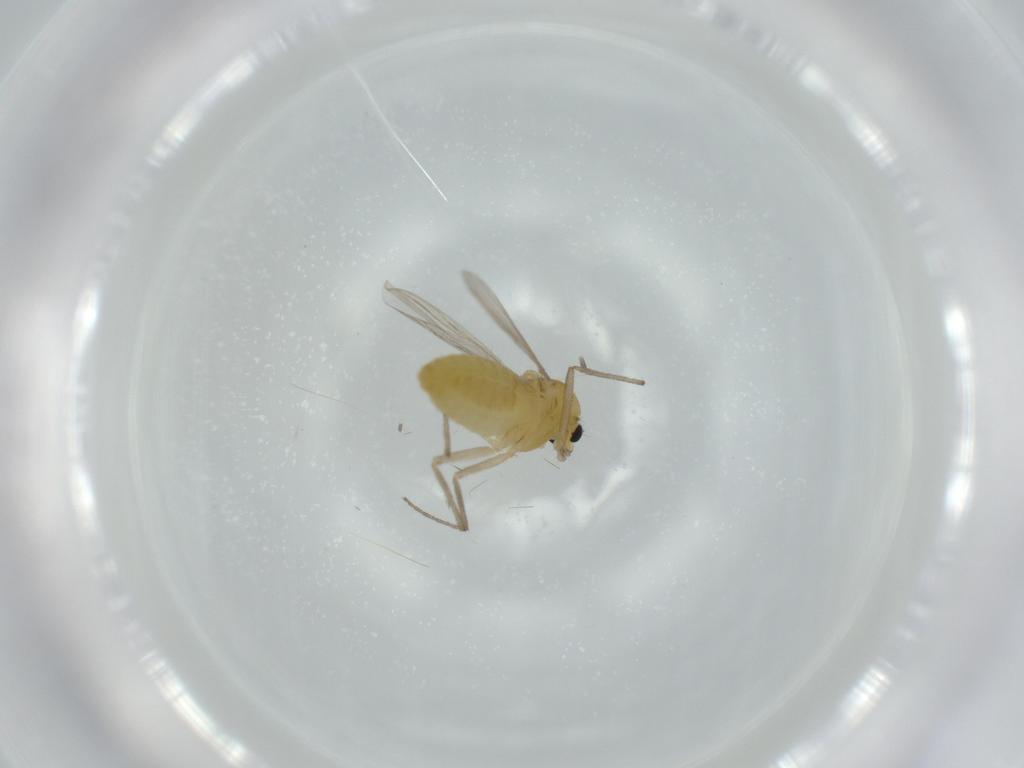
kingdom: Animalia
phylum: Arthropoda
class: Insecta
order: Diptera
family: Chironomidae
